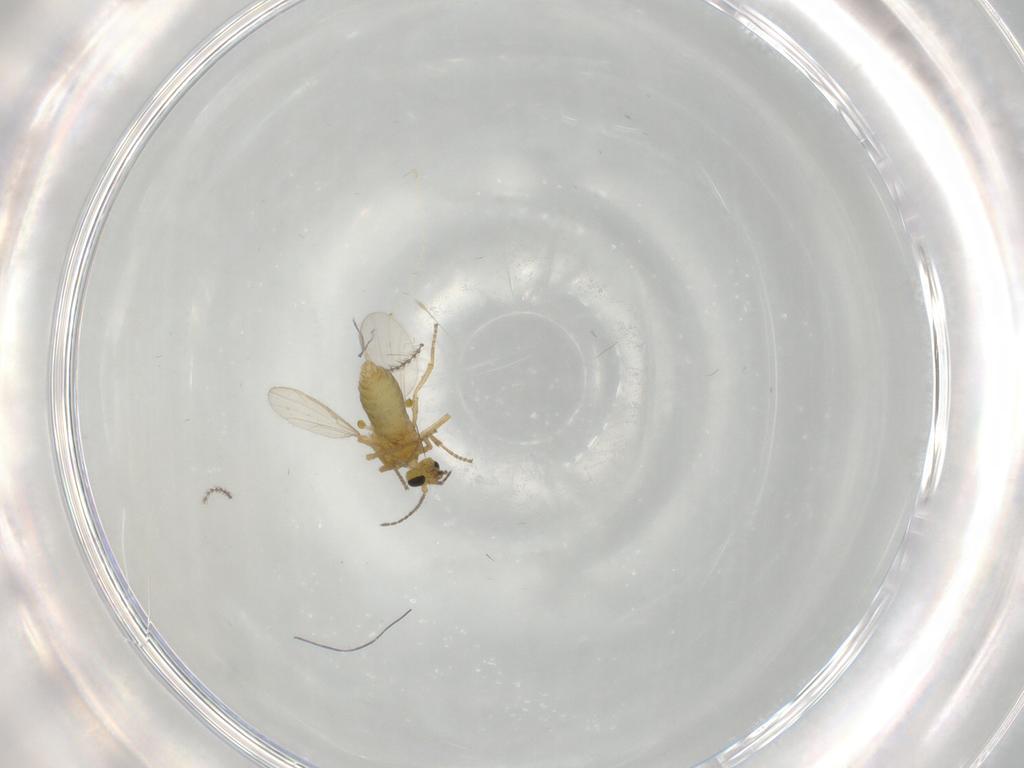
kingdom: Animalia
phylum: Arthropoda
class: Insecta
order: Diptera
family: Ceratopogonidae
